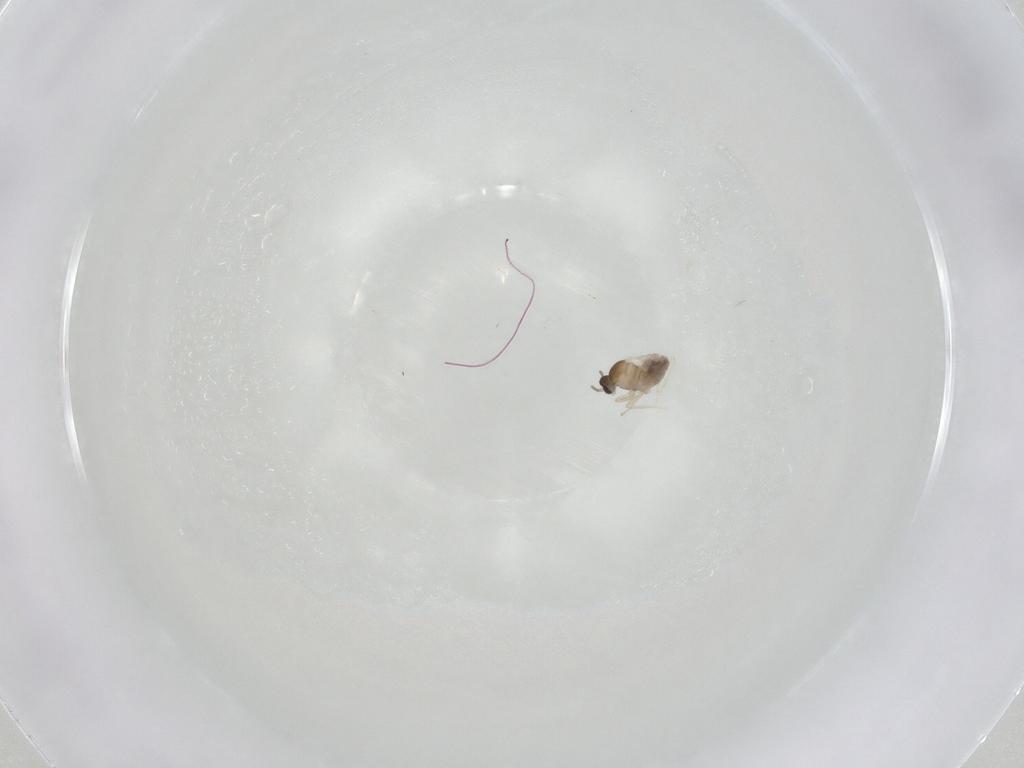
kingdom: Animalia
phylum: Arthropoda
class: Insecta
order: Diptera
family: Cecidomyiidae
